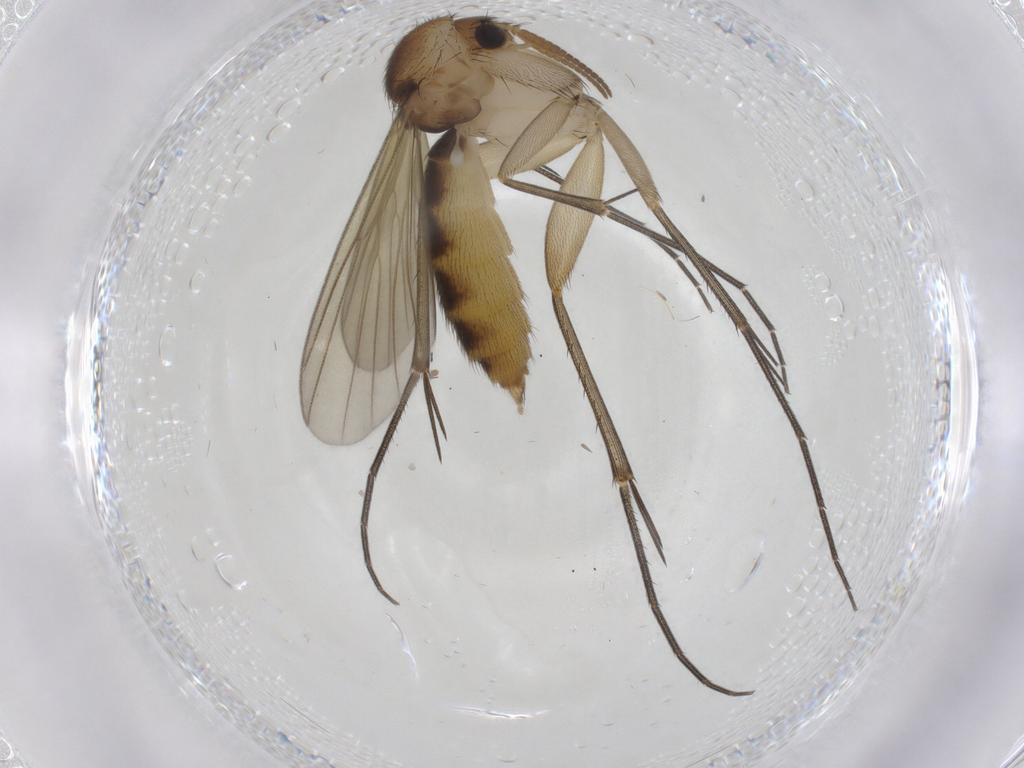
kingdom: Animalia
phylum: Arthropoda
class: Insecta
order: Diptera
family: Mycetophilidae
